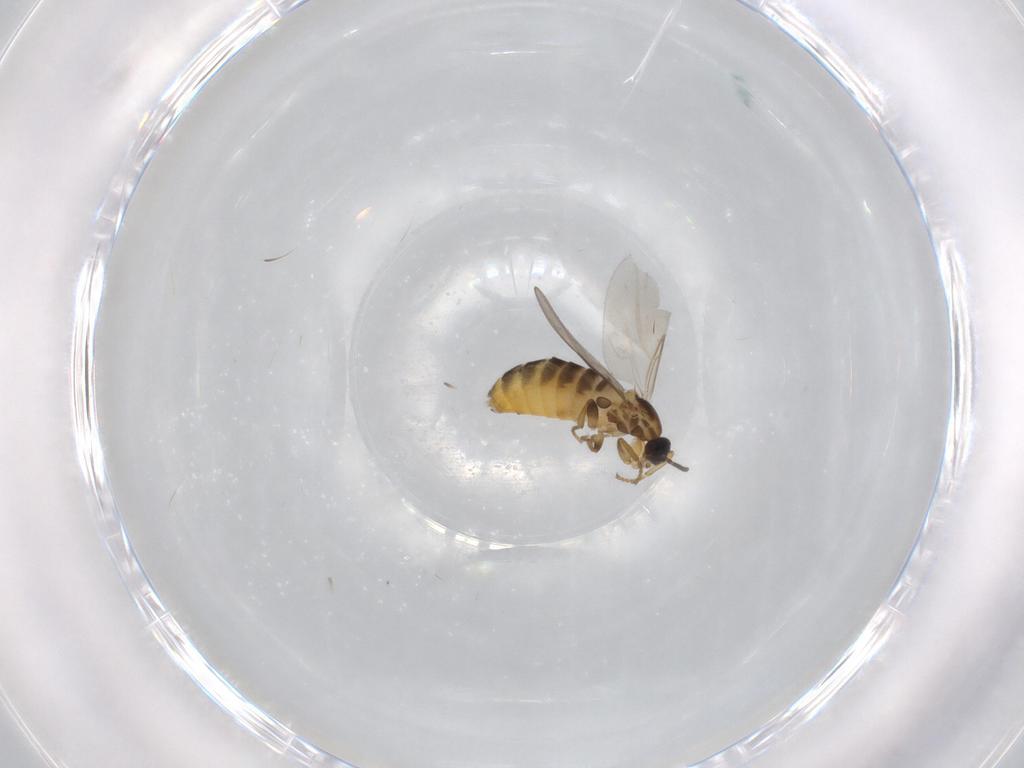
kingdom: Animalia
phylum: Arthropoda
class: Insecta
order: Diptera
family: Scatopsidae
